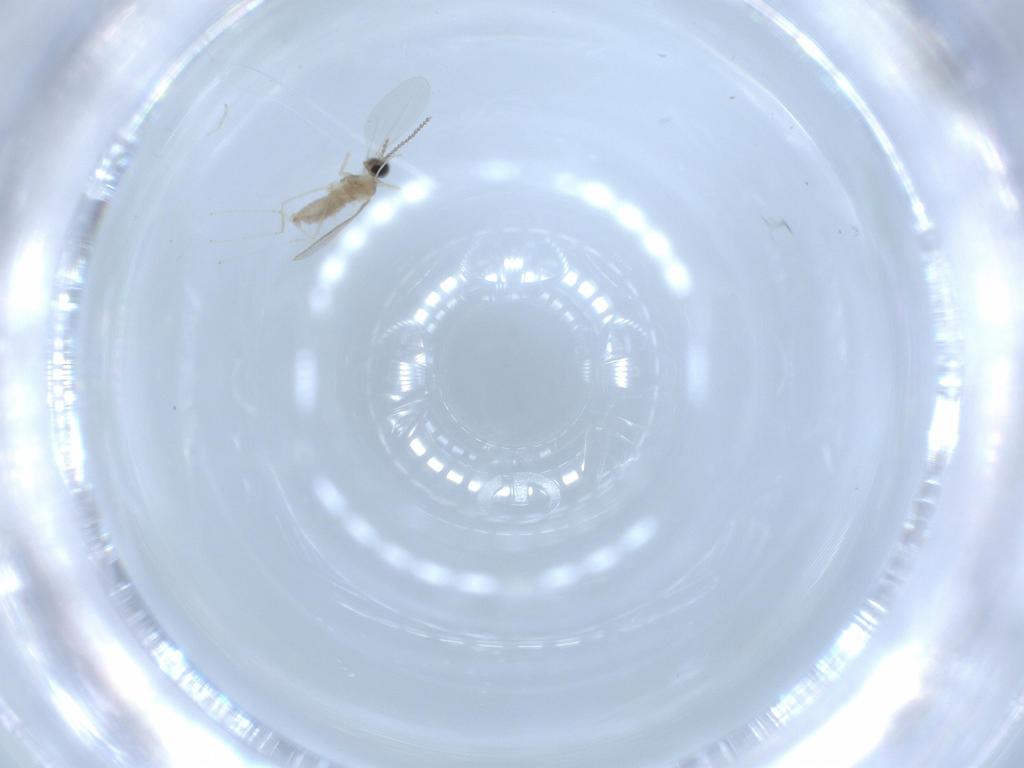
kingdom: Animalia
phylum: Arthropoda
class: Insecta
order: Diptera
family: Cecidomyiidae
